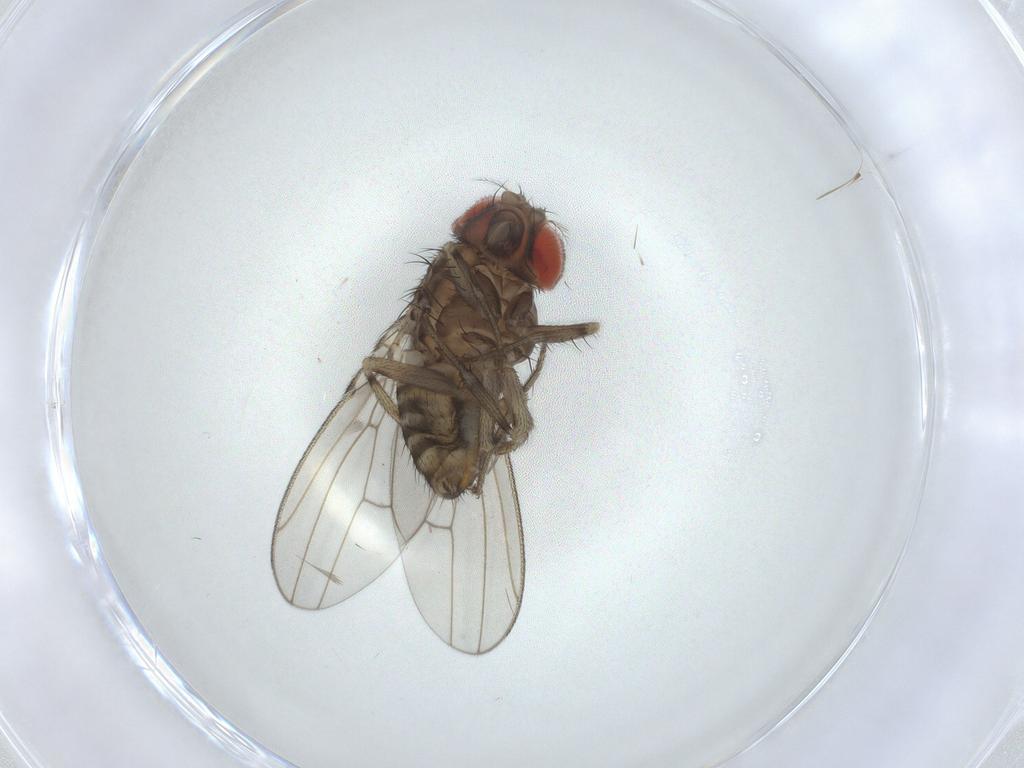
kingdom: Animalia
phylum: Arthropoda
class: Insecta
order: Diptera
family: Drosophilidae
